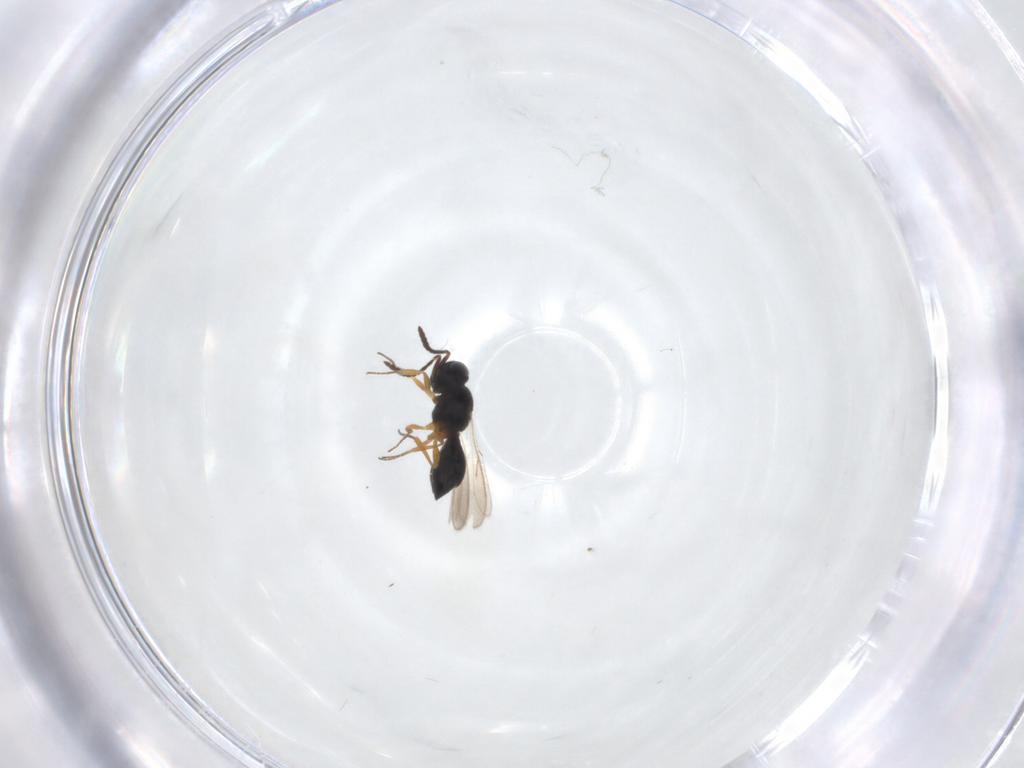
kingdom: Animalia
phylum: Arthropoda
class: Insecta
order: Hymenoptera
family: Scelionidae
